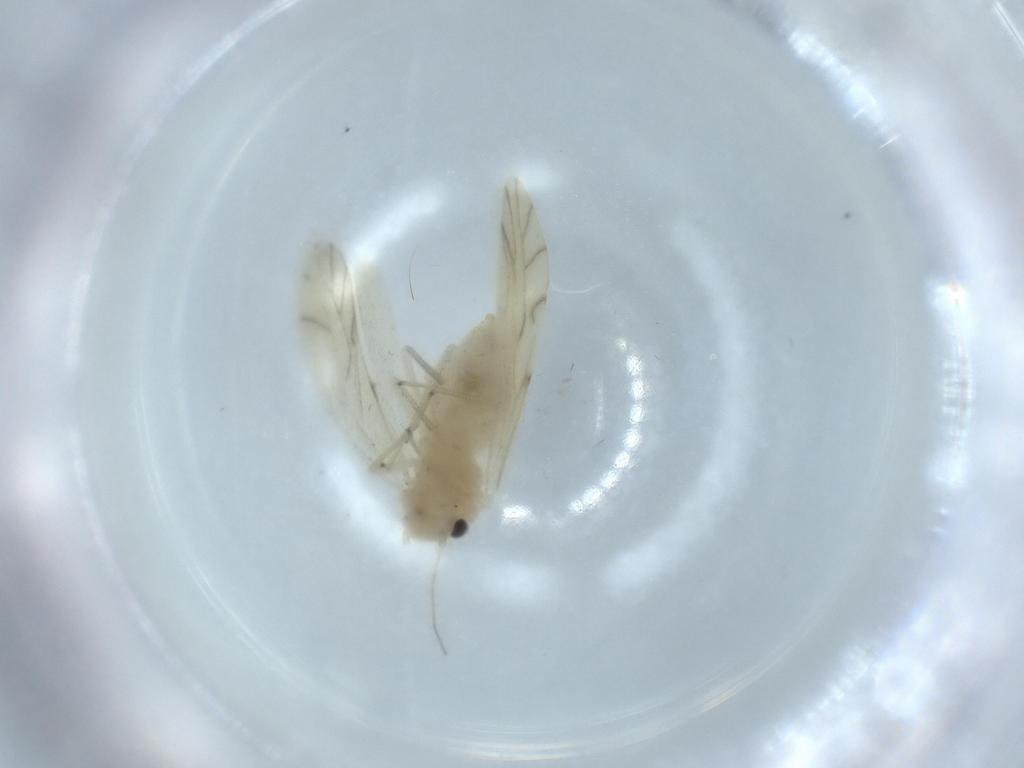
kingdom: Animalia
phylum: Arthropoda
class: Insecta
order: Psocodea
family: Caeciliusidae
